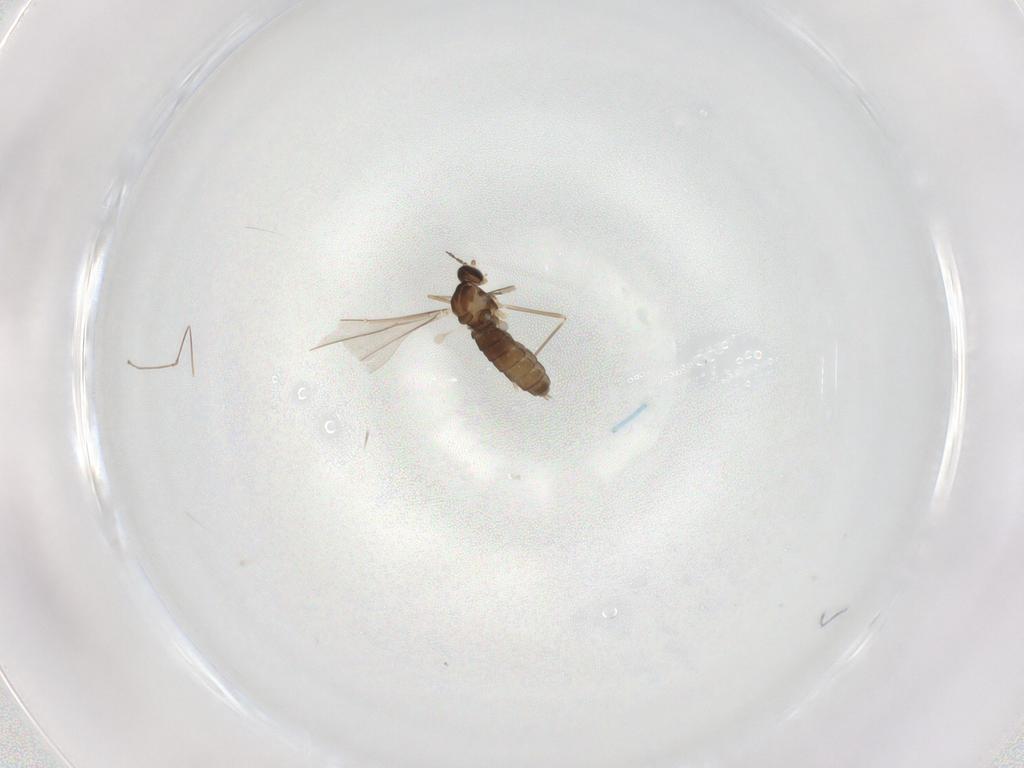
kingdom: Animalia
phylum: Arthropoda
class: Insecta
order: Diptera
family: Cecidomyiidae
